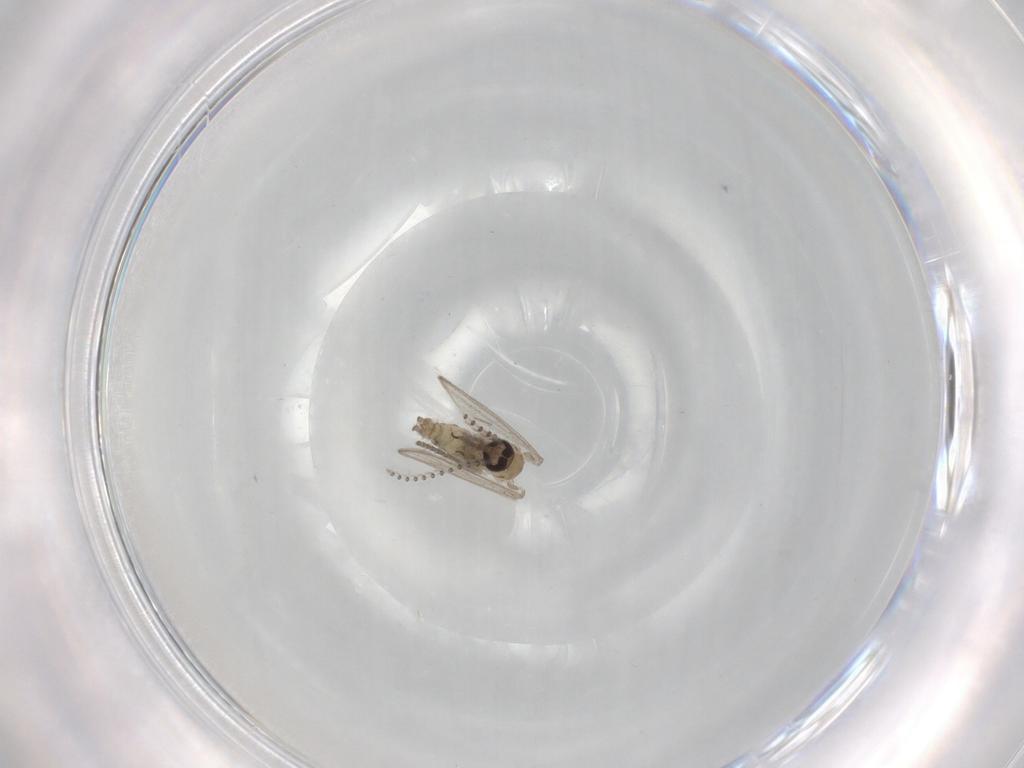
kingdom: Animalia
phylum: Arthropoda
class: Insecta
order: Diptera
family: Psychodidae
